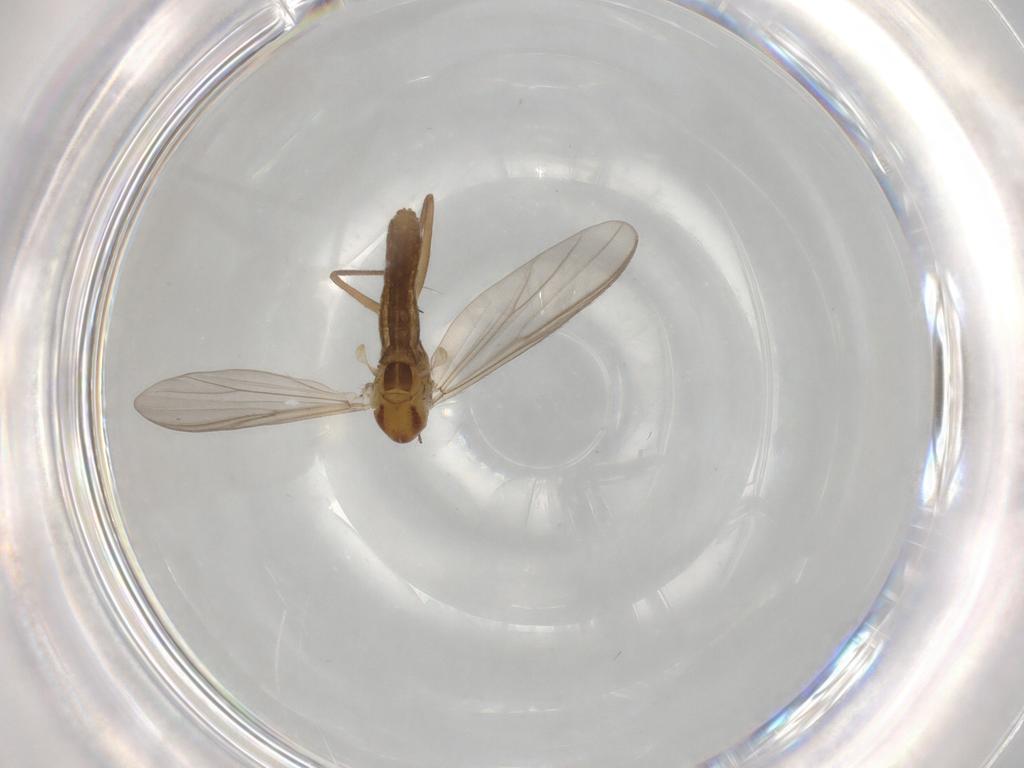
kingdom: Animalia
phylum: Arthropoda
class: Insecta
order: Diptera
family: Chironomidae
